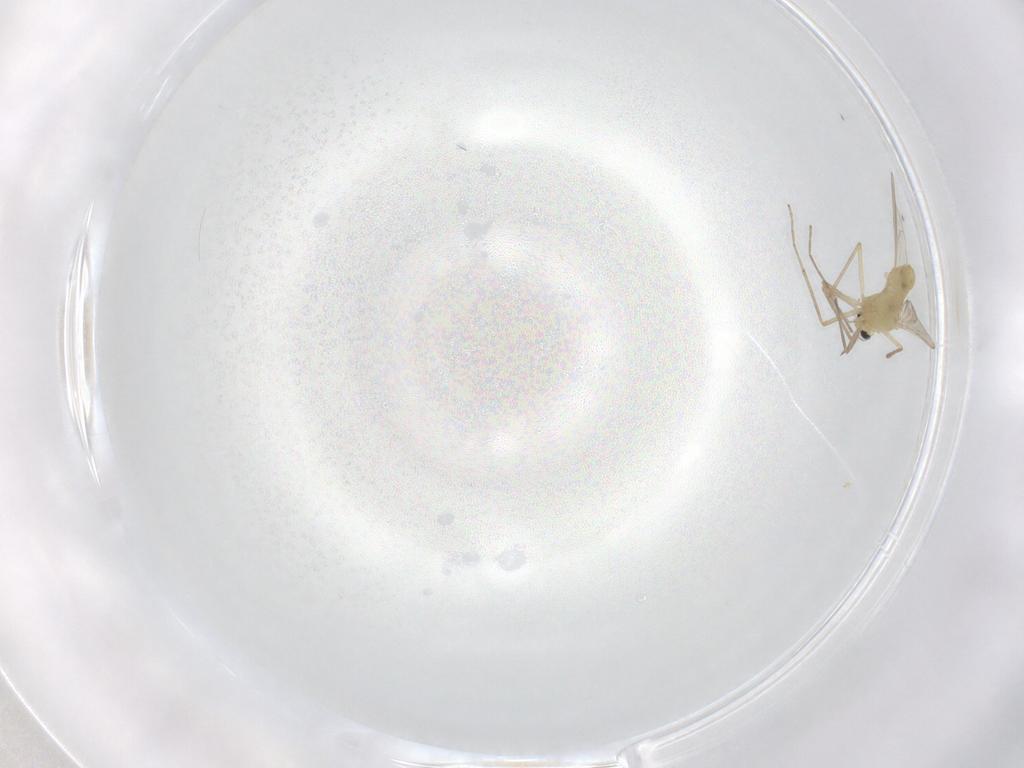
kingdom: Animalia
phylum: Arthropoda
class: Insecta
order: Diptera
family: Chironomidae
